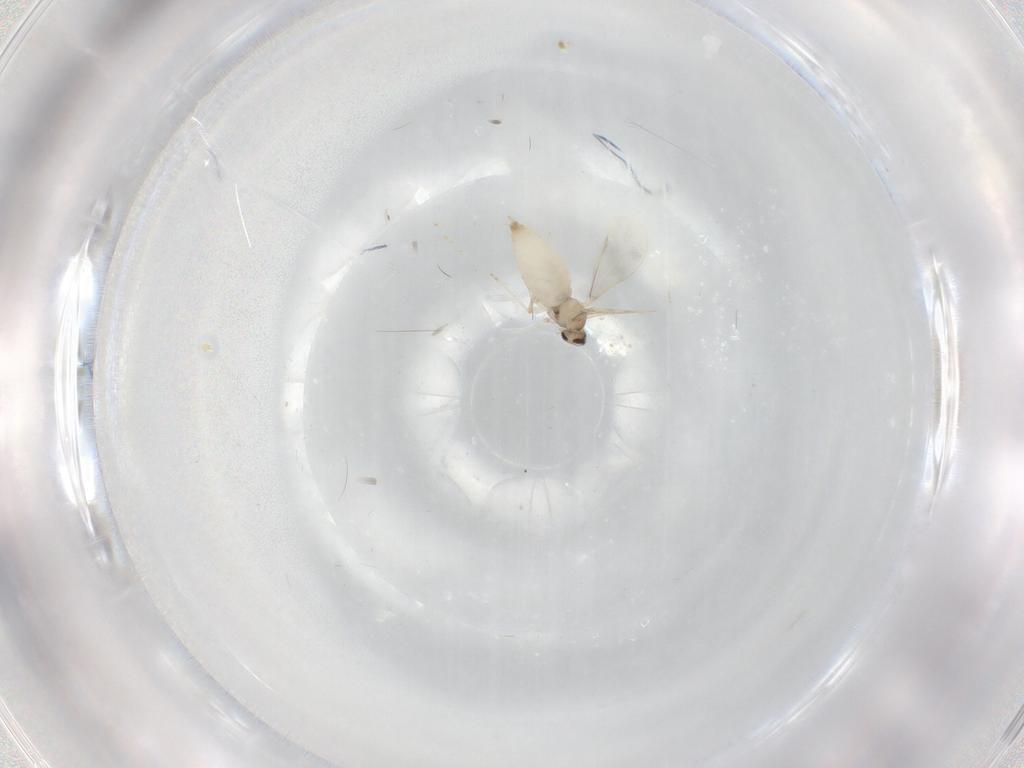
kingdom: Animalia
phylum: Arthropoda
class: Insecta
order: Diptera
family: Cecidomyiidae
